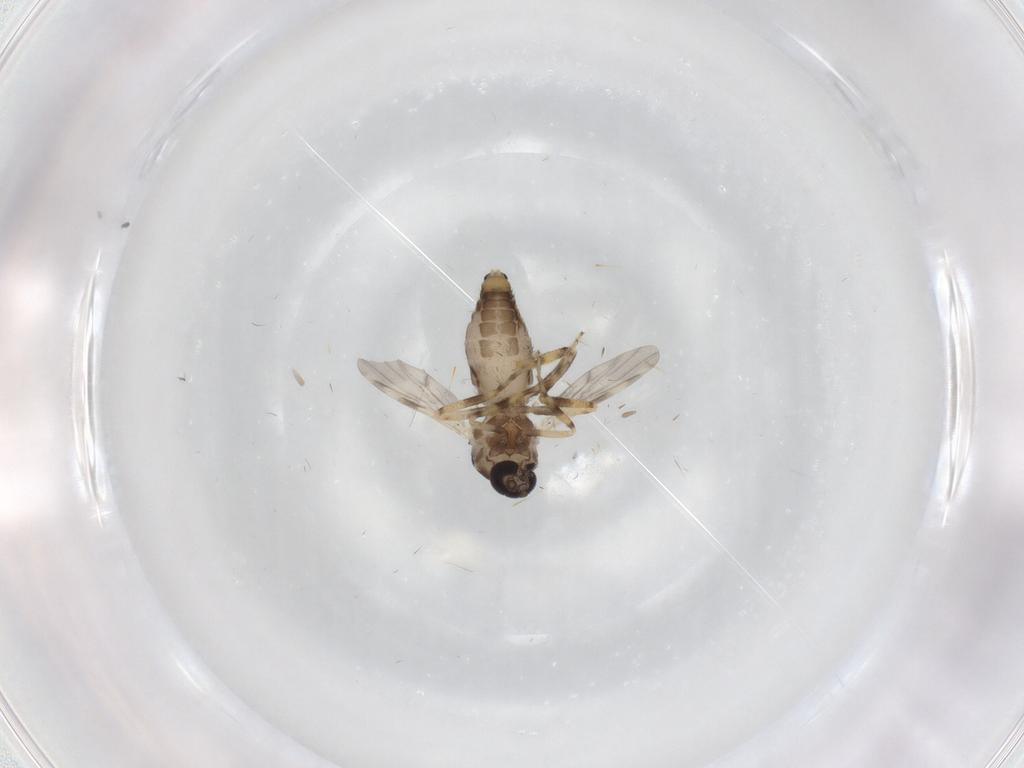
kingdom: Animalia
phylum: Arthropoda
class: Insecta
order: Diptera
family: Ceratopogonidae
